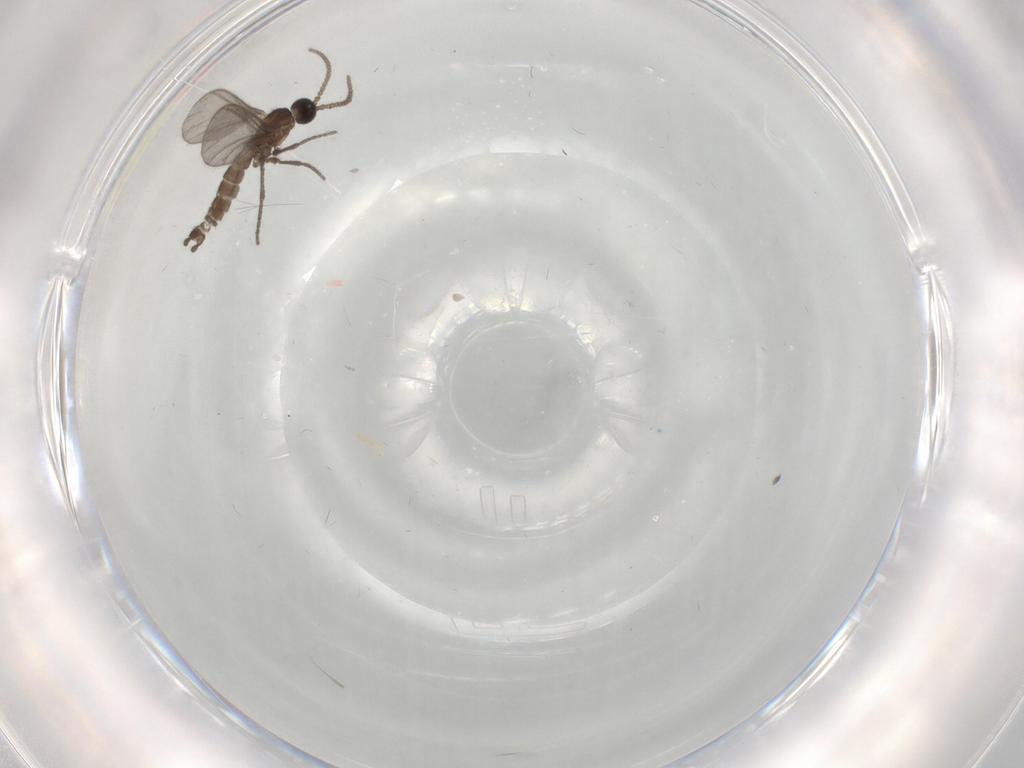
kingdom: Animalia
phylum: Arthropoda
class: Insecta
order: Diptera
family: Sciaridae
